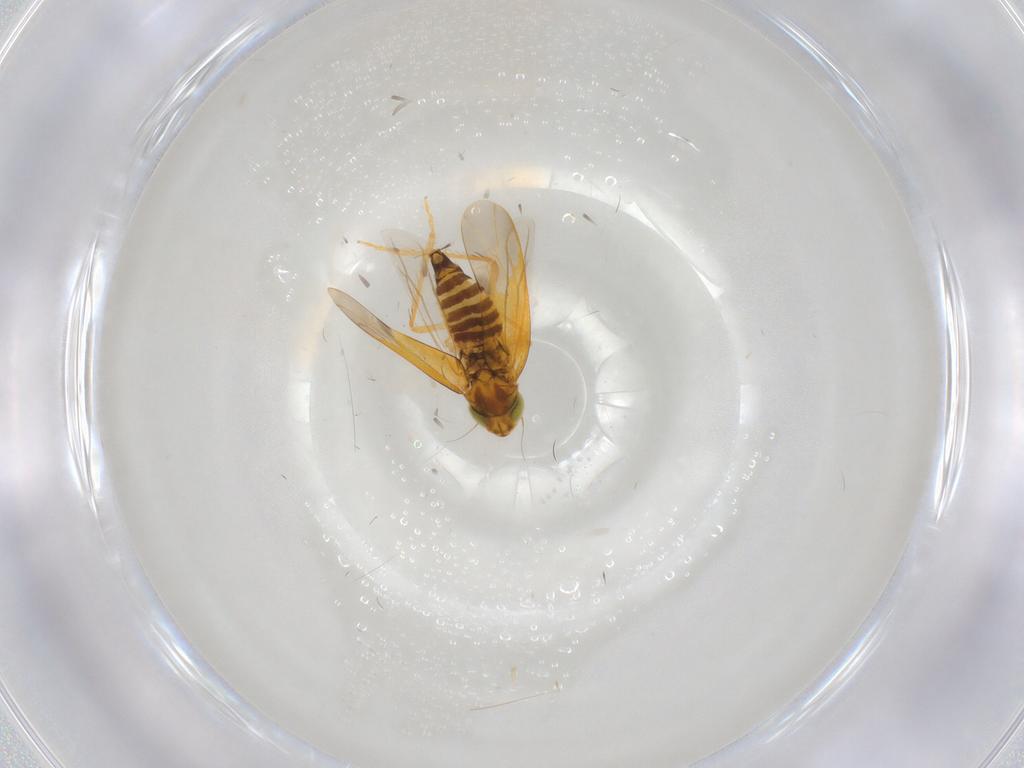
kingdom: Animalia
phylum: Arthropoda
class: Insecta
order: Hemiptera
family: Cicadellidae
